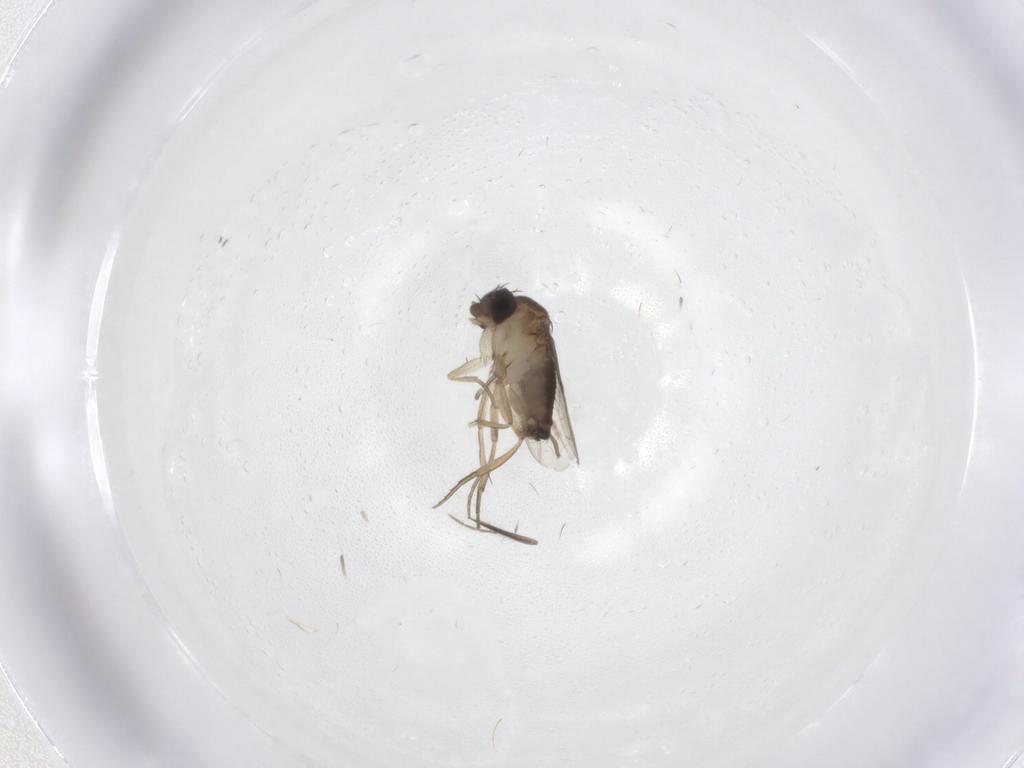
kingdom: Animalia
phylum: Arthropoda
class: Insecta
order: Diptera
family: Phoridae
